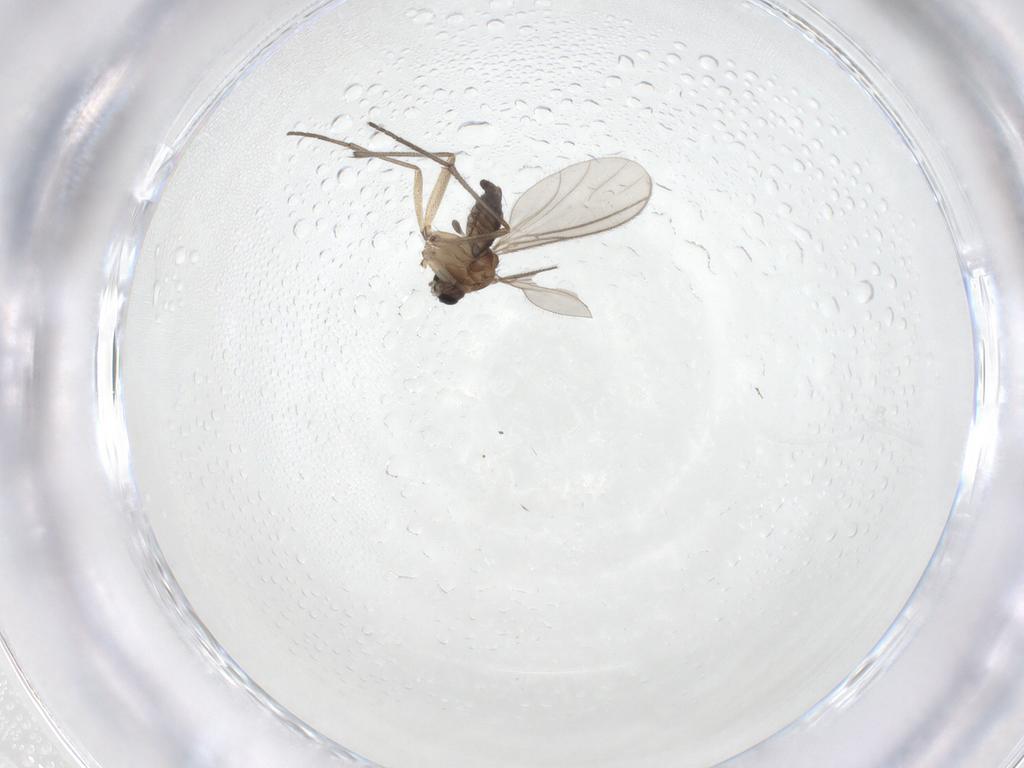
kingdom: Animalia
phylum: Arthropoda
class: Insecta
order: Diptera
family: Sciaridae
